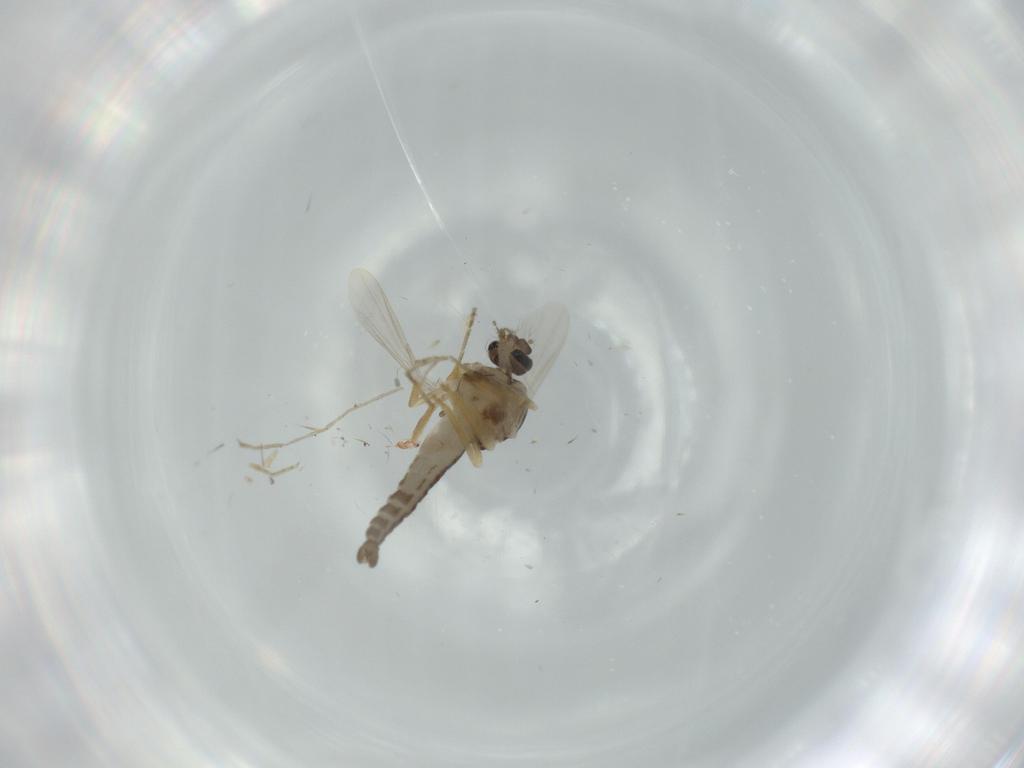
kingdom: Animalia
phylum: Arthropoda
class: Insecta
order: Diptera
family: Ceratopogonidae
